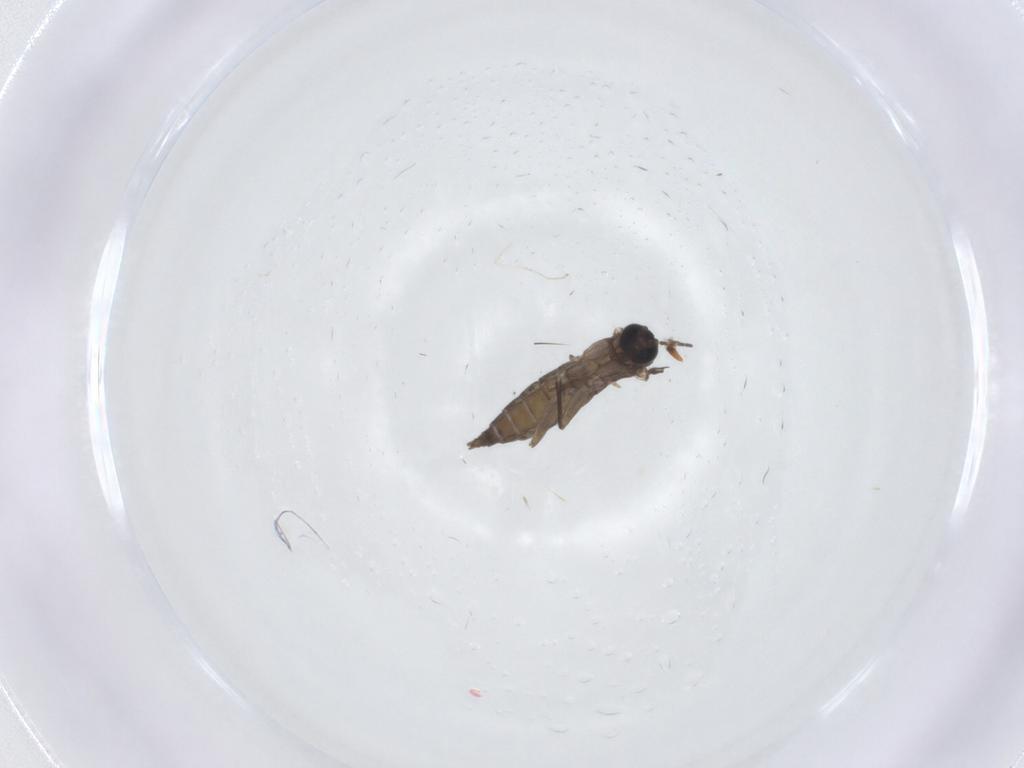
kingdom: Animalia
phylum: Arthropoda
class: Insecta
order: Diptera
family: Sciaridae
